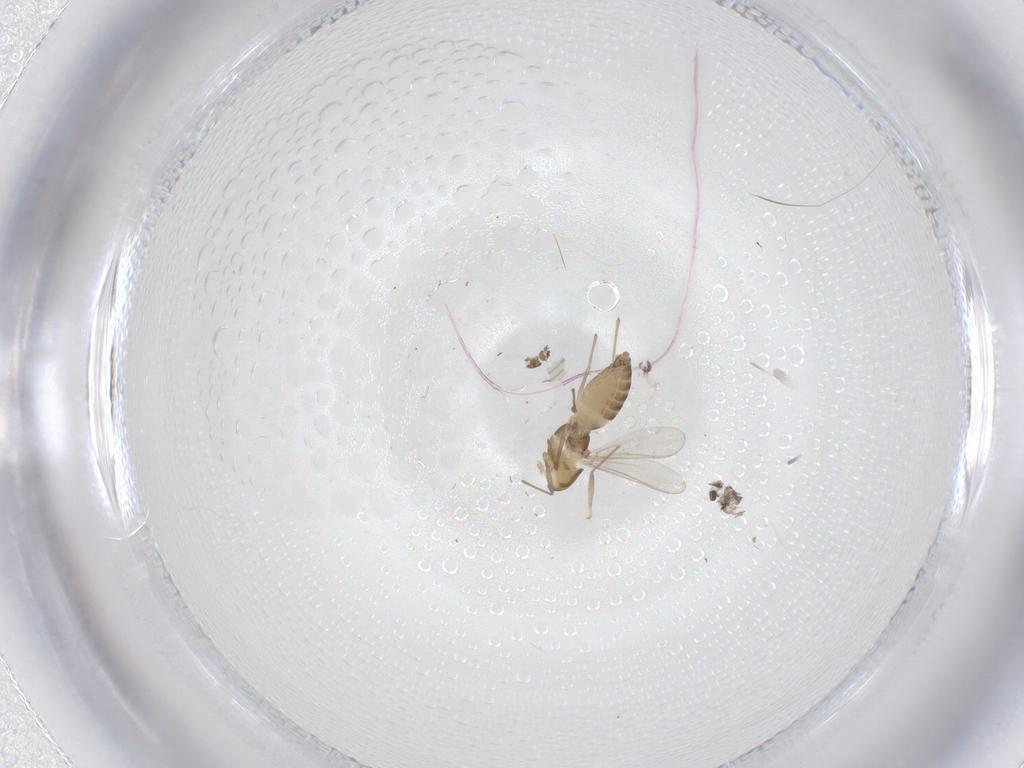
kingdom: Animalia
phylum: Arthropoda
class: Insecta
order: Diptera
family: Chironomidae
